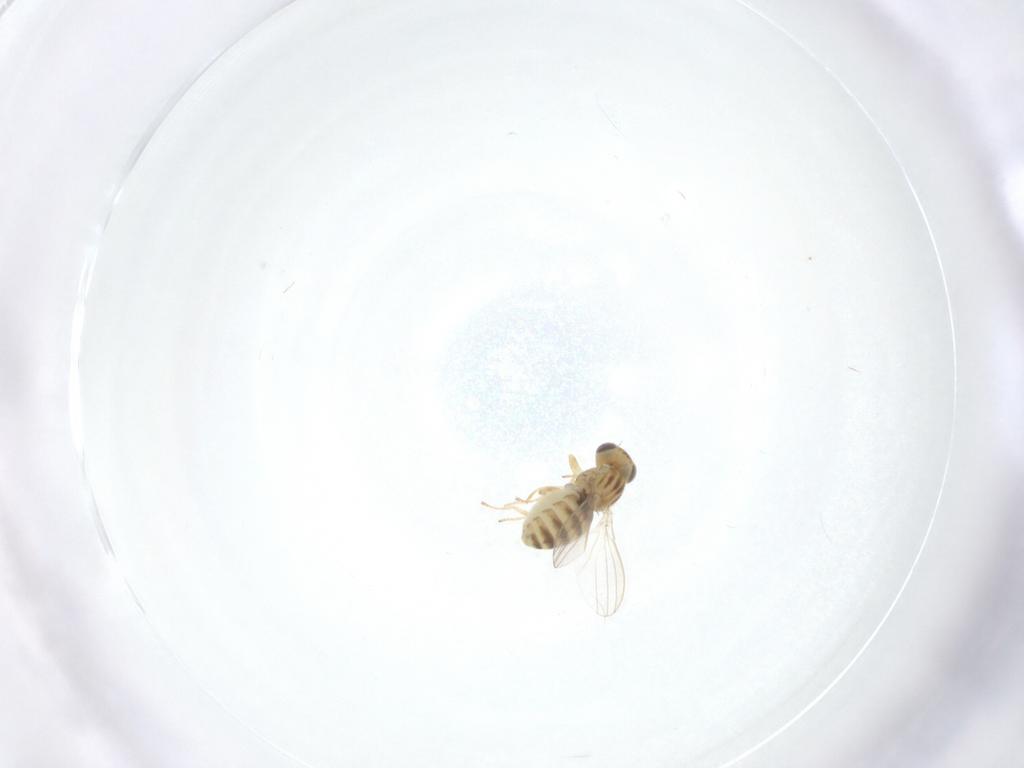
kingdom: Animalia
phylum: Arthropoda
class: Insecta
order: Diptera
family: Chyromyidae
